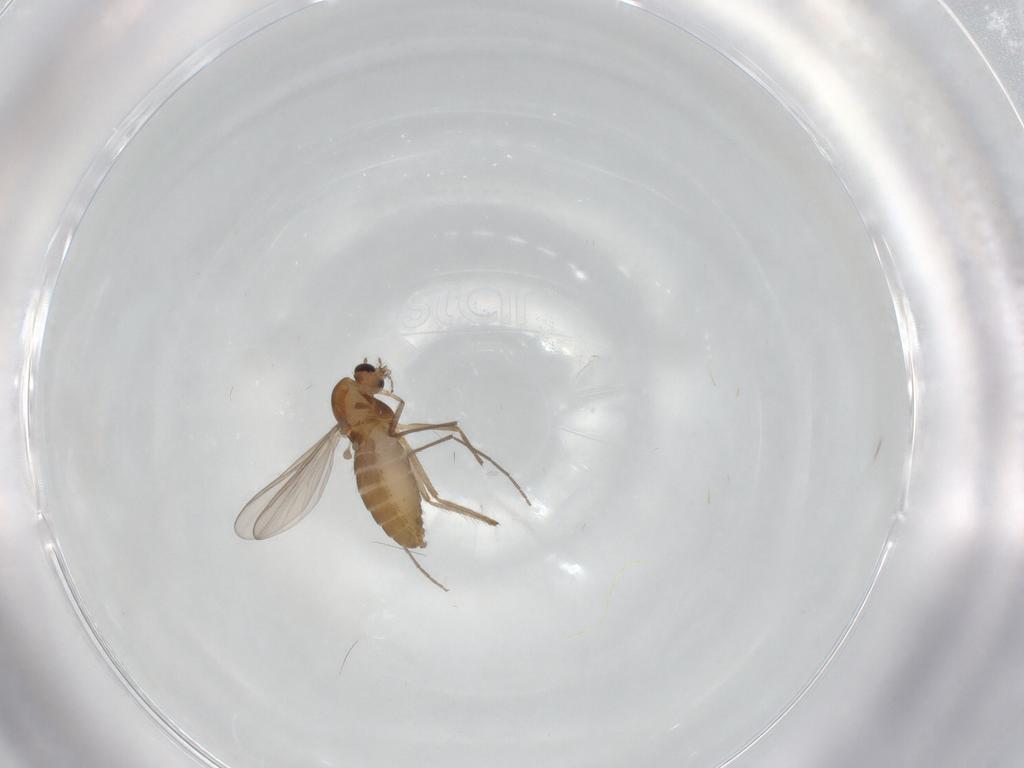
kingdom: Animalia
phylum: Arthropoda
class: Insecta
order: Diptera
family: Chironomidae
